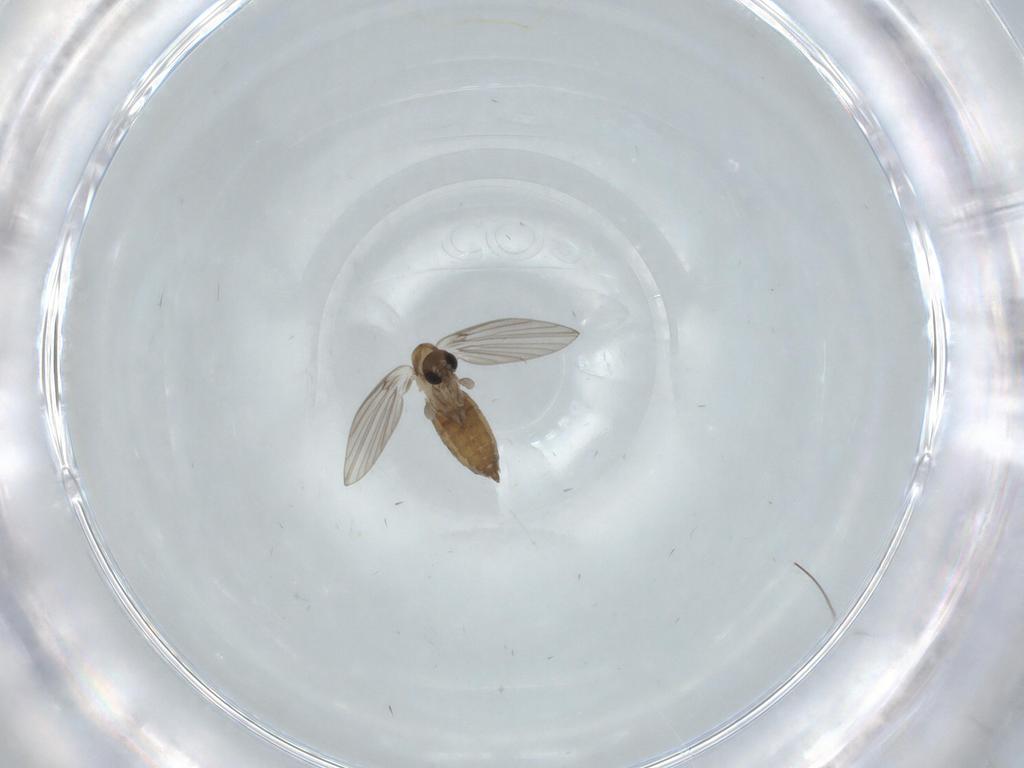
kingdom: Animalia
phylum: Arthropoda
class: Insecta
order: Diptera
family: Psychodidae
